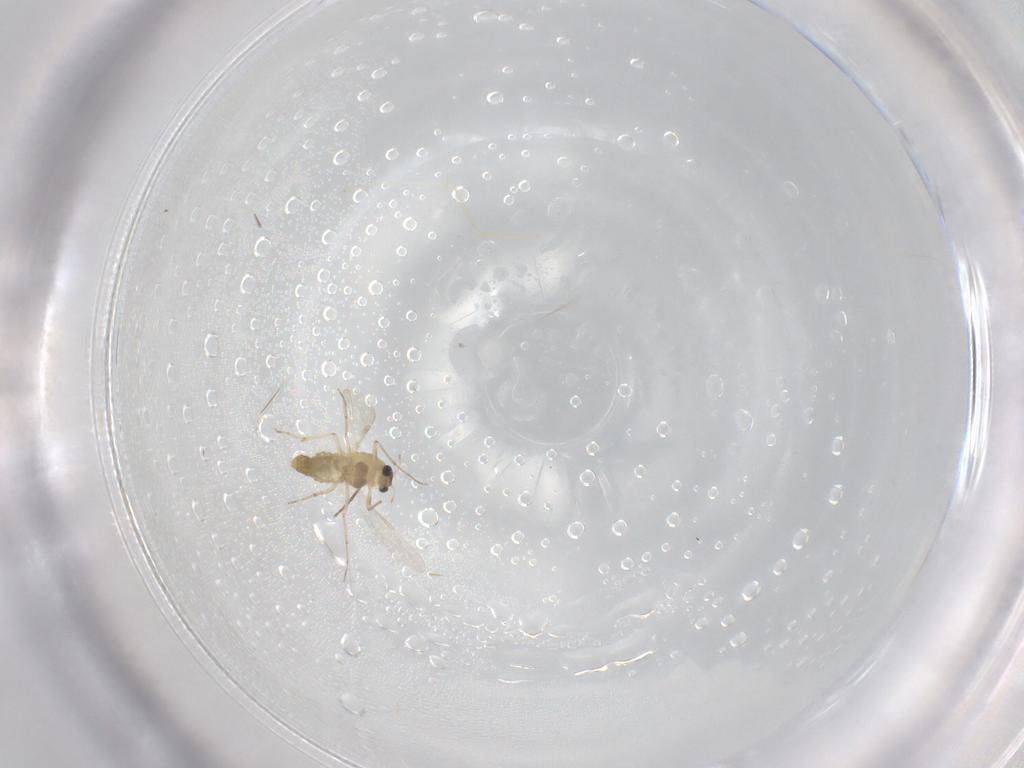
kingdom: Animalia
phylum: Arthropoda
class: Insecta
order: Diptera
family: Chironomidae
